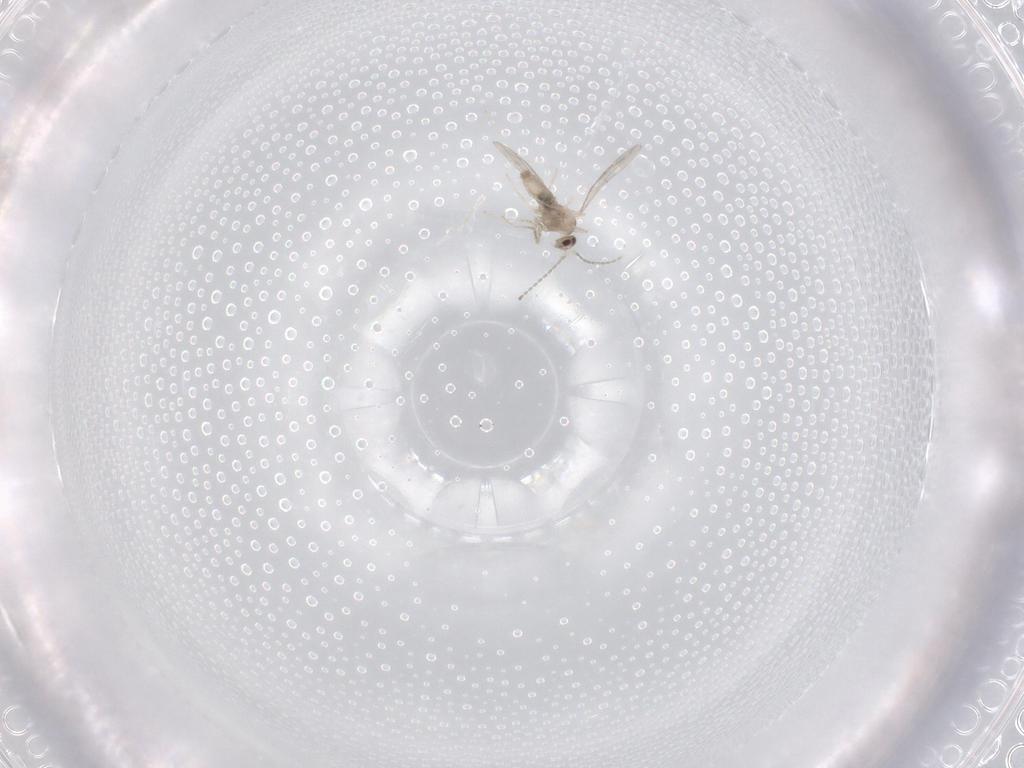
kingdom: Animalia
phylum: Arthropoda
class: Insecta
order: Diptera
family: Cecidomyiidae
